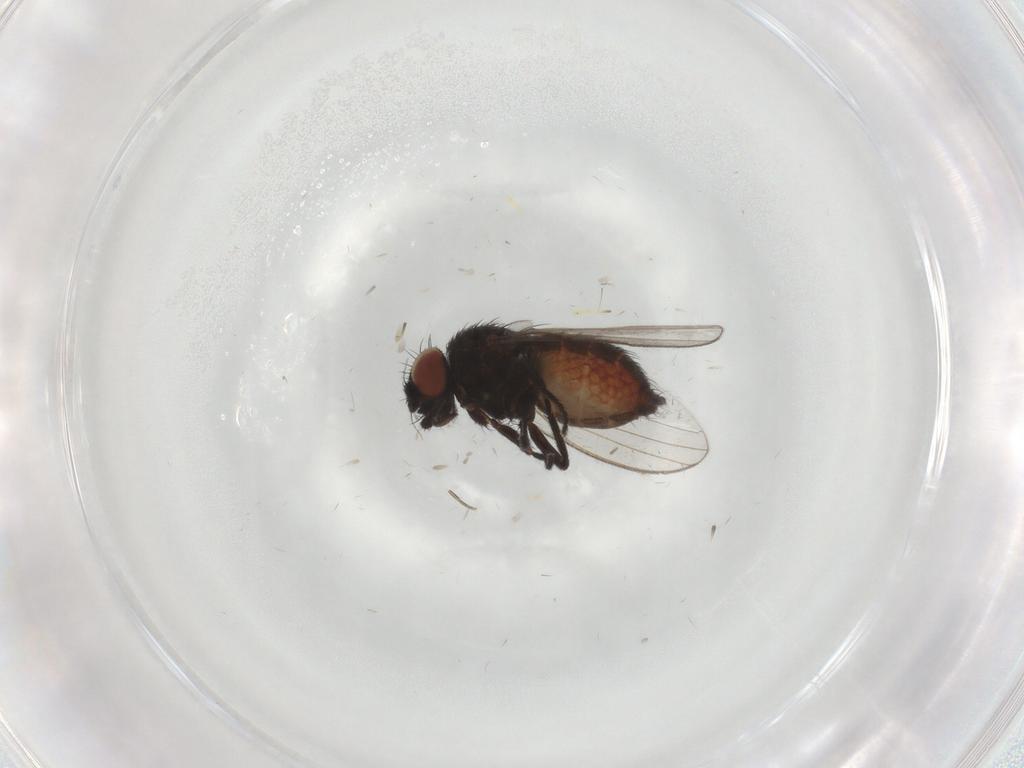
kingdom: Animalia
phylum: Arthropoda
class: Insecta
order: Diptera
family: Milichiidae
